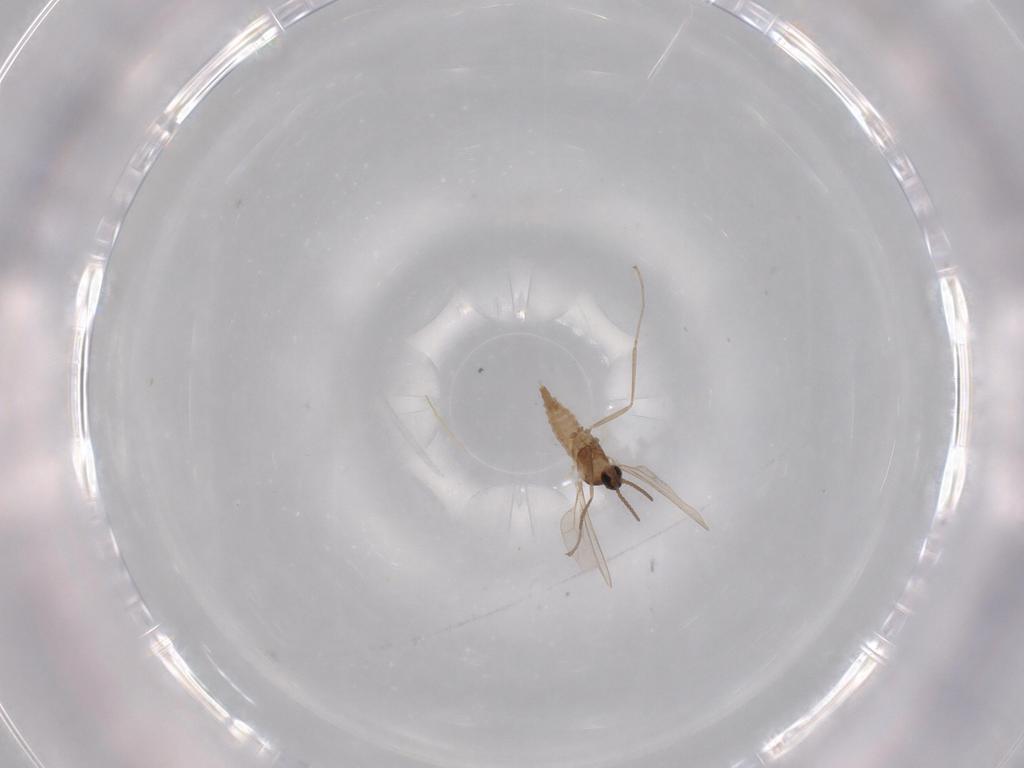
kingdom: Animalia
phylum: Arthropoda
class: Insecta
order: Diptera
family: Cecidomyiidae
